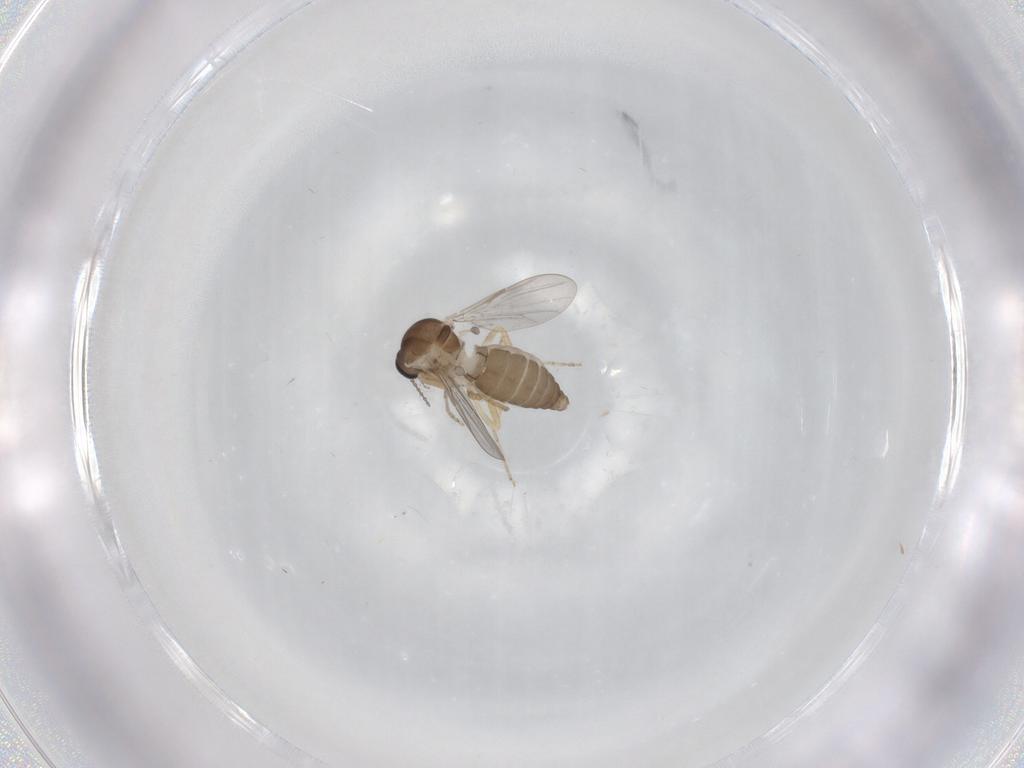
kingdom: Animalia
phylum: Arthropoda
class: Insecta
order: Diptera
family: Ceratopogonidae
